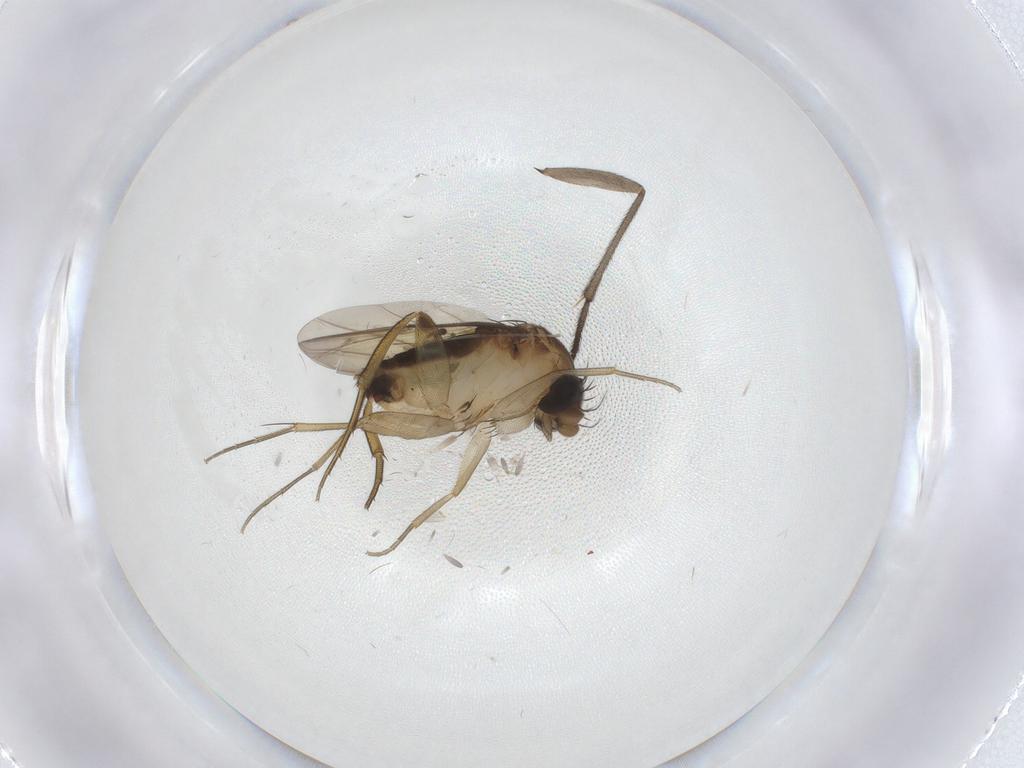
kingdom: Animalia
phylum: Arthropoda
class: Insecta
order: Diptera
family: Phoridae
